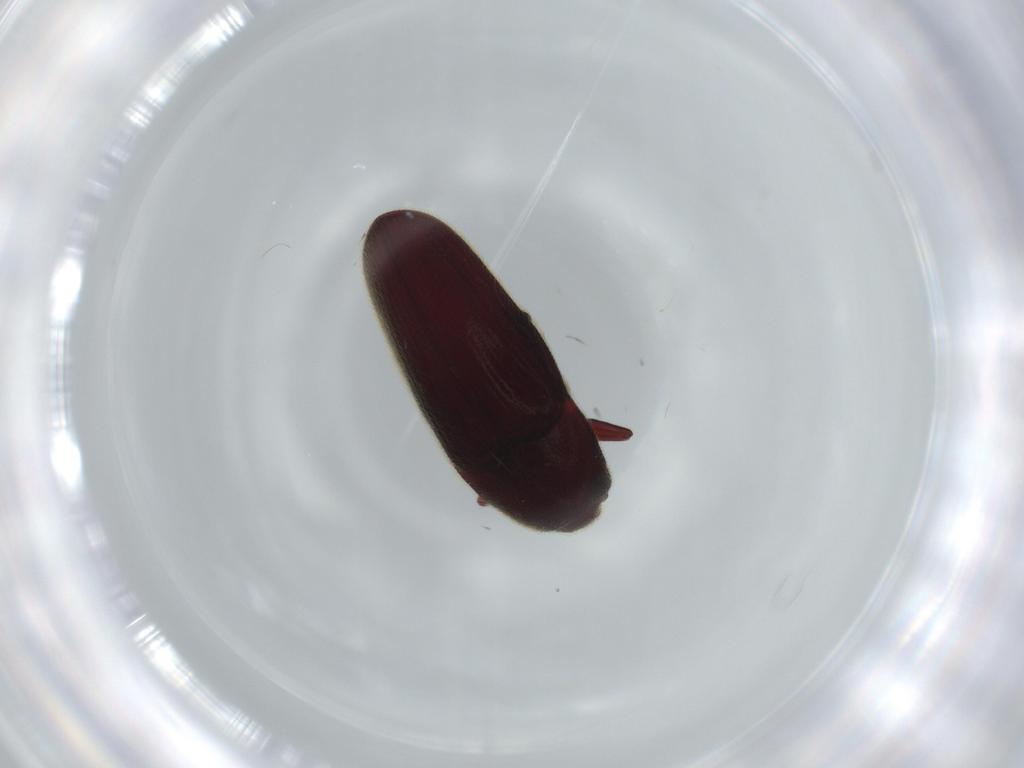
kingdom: Animalia
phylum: Arthropoda
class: Insecta
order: Coleoptera
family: Throscidae
